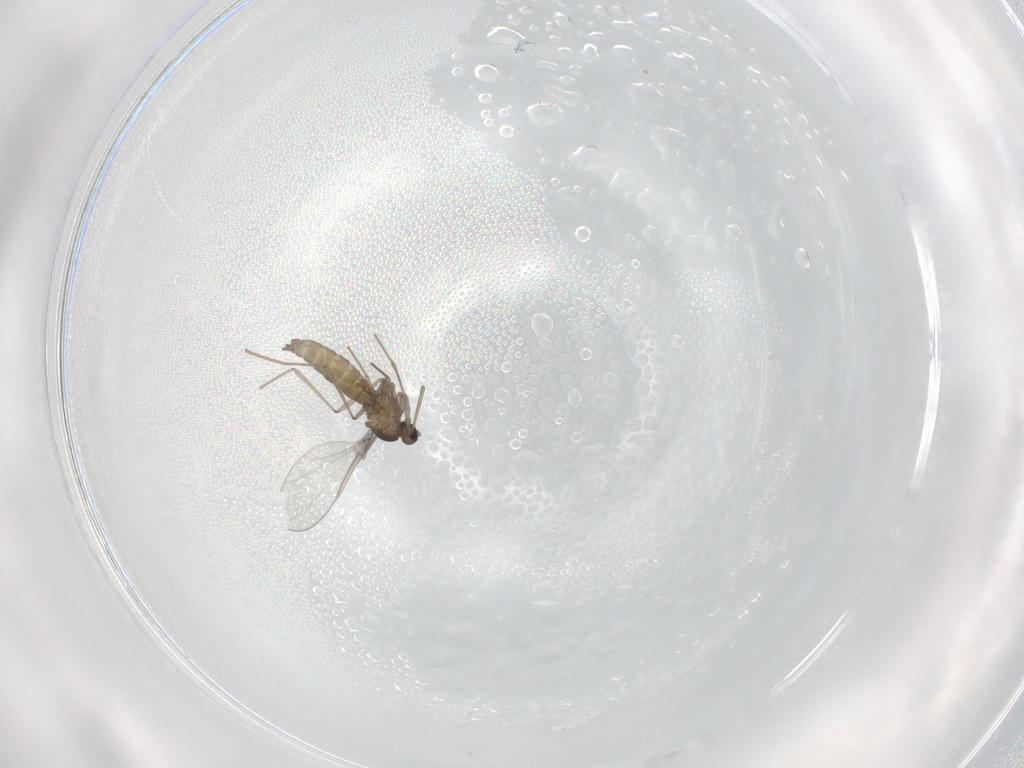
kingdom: Animalia
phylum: Arthropoda
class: Insecta
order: Diptera
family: Cecidomyiidae
